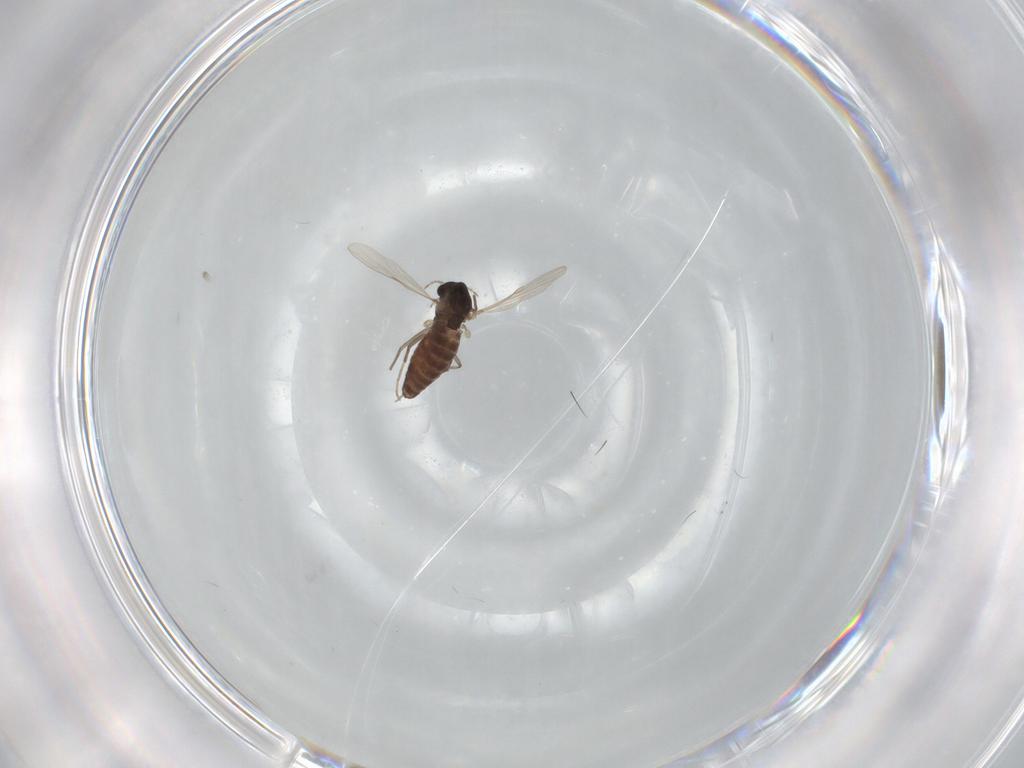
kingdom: Animalia
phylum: Arthropoda
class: Insecta
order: Diptera
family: Chironomidae
